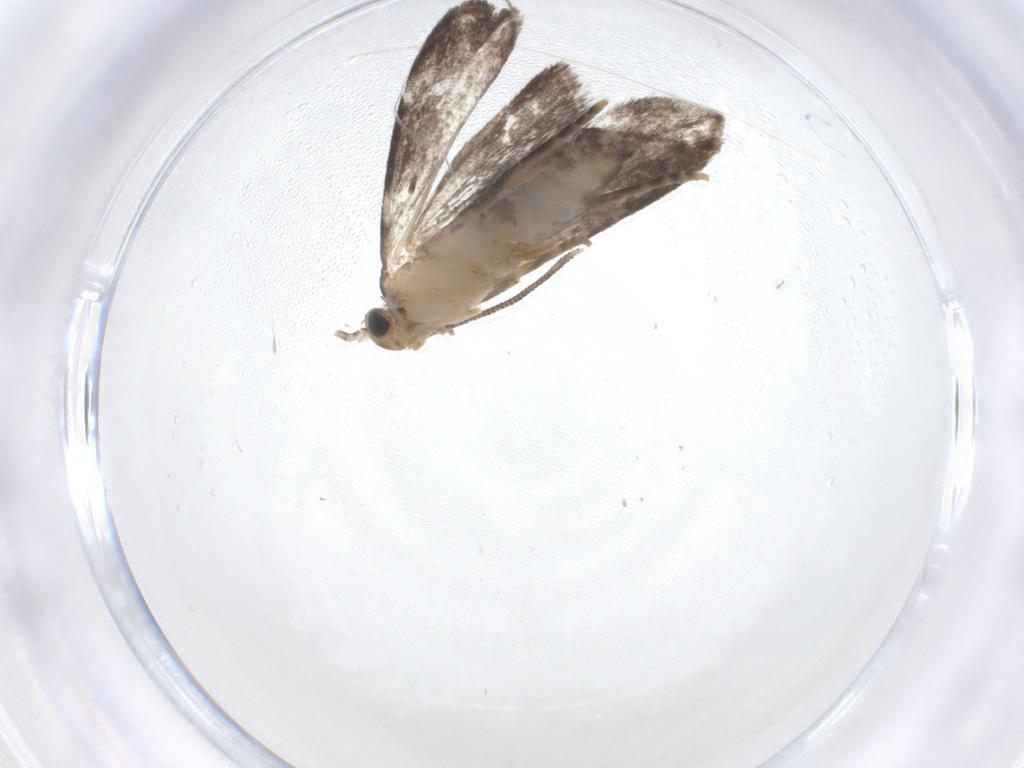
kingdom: Animalia
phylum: Arthropoda
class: Insecta
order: Lepidoptera
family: Dryadaulidae
